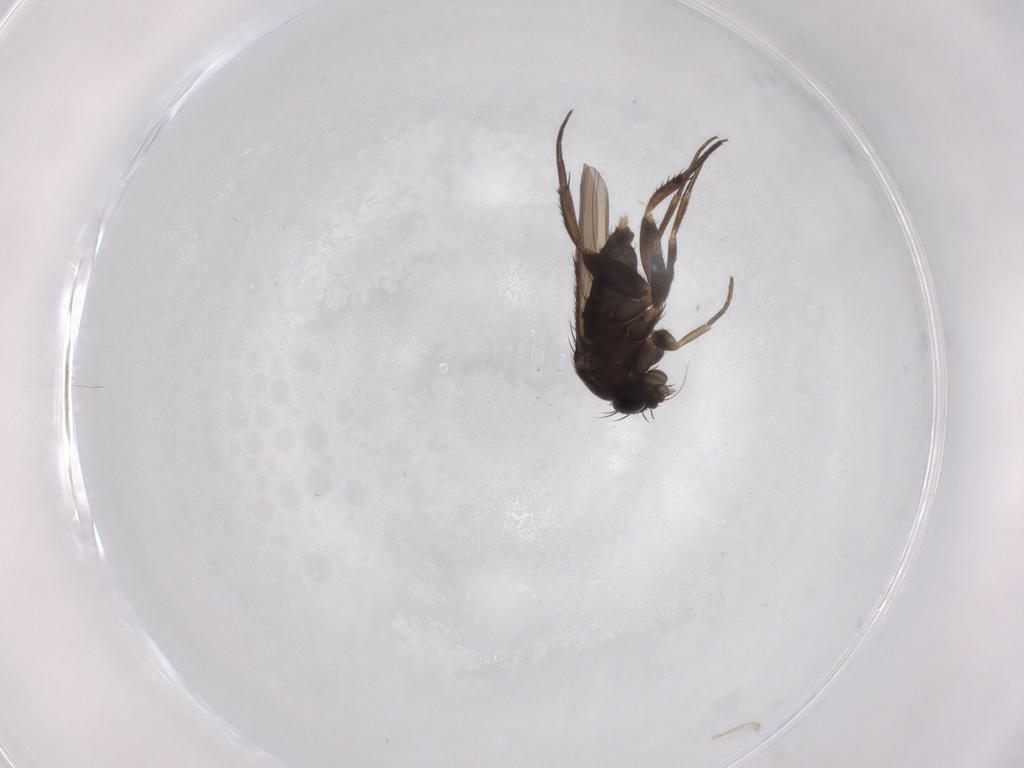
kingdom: Animalia
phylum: Arthropoda
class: Insecta
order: Diptera
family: Phoridae
